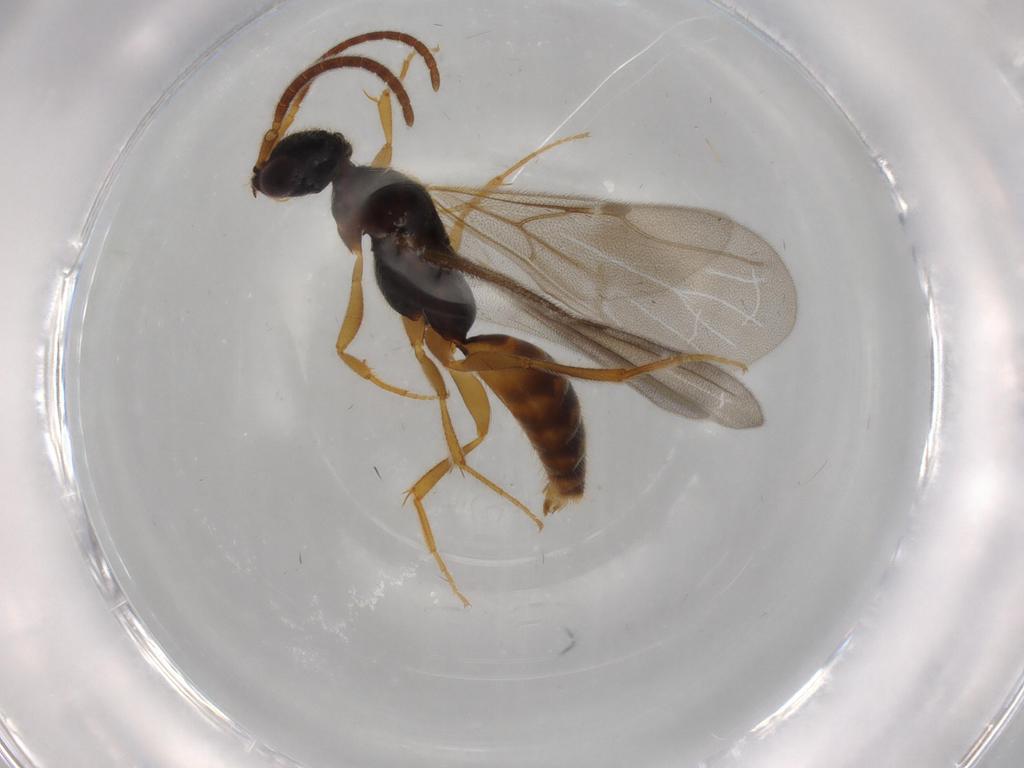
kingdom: Animalia
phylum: Arthropoda
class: Insecta
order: Hymenoptera
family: Bethylidae
